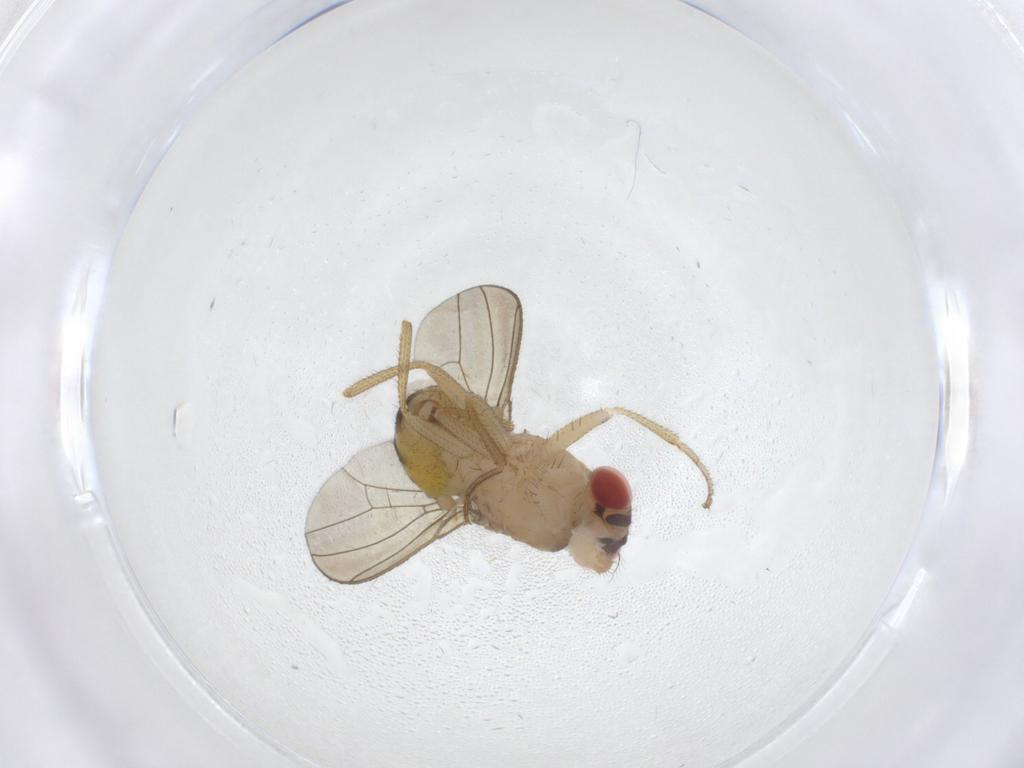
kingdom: Animalia
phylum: Arthropoda
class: Insecta
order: Diptera
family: Drosophilidae
